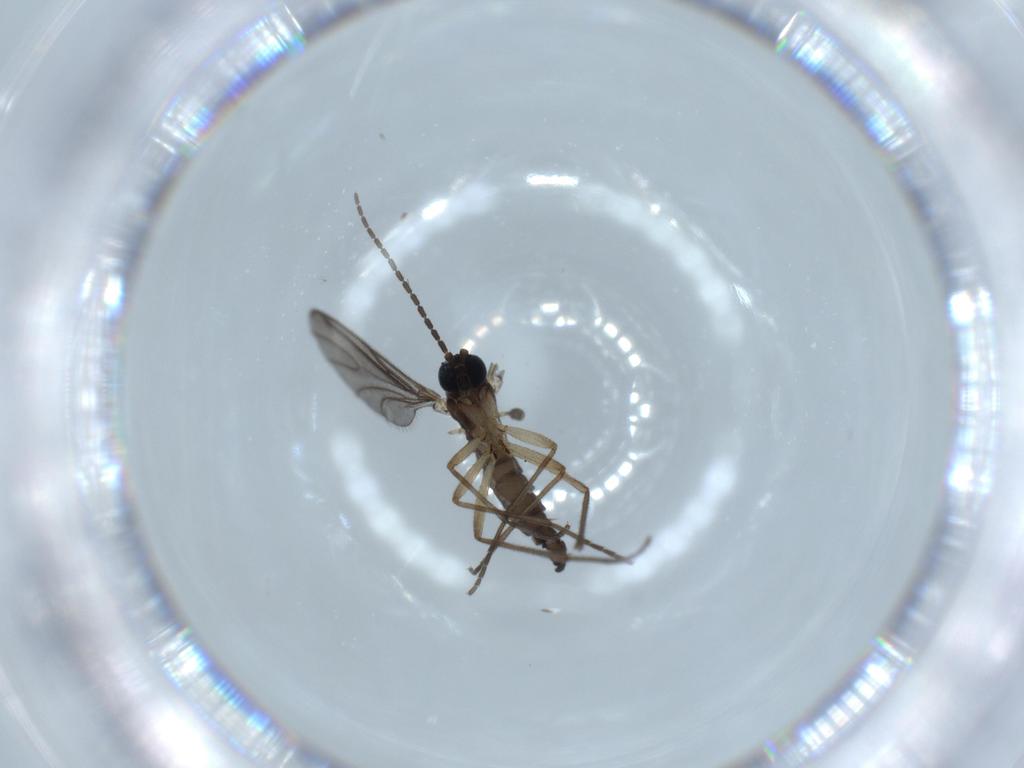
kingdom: Animalia
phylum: Arthropoda
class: Insecta
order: Diptera
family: Sciaridae
